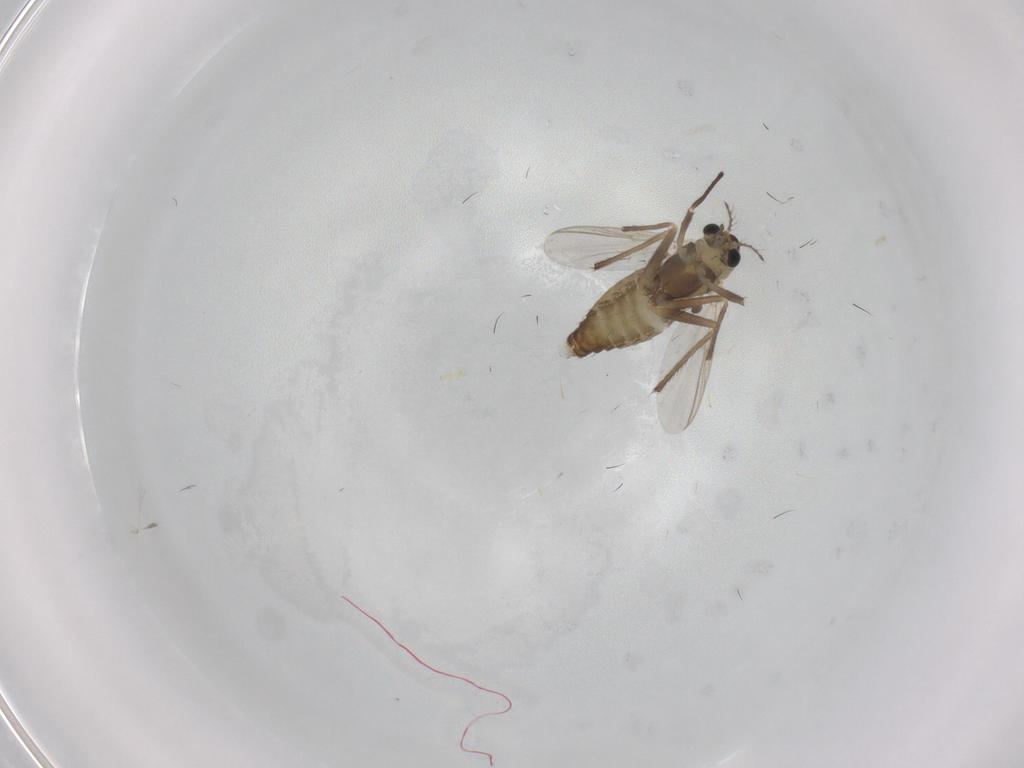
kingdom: Animalia
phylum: Arthropoda
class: Insecta
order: Diptera
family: Chironomidae
